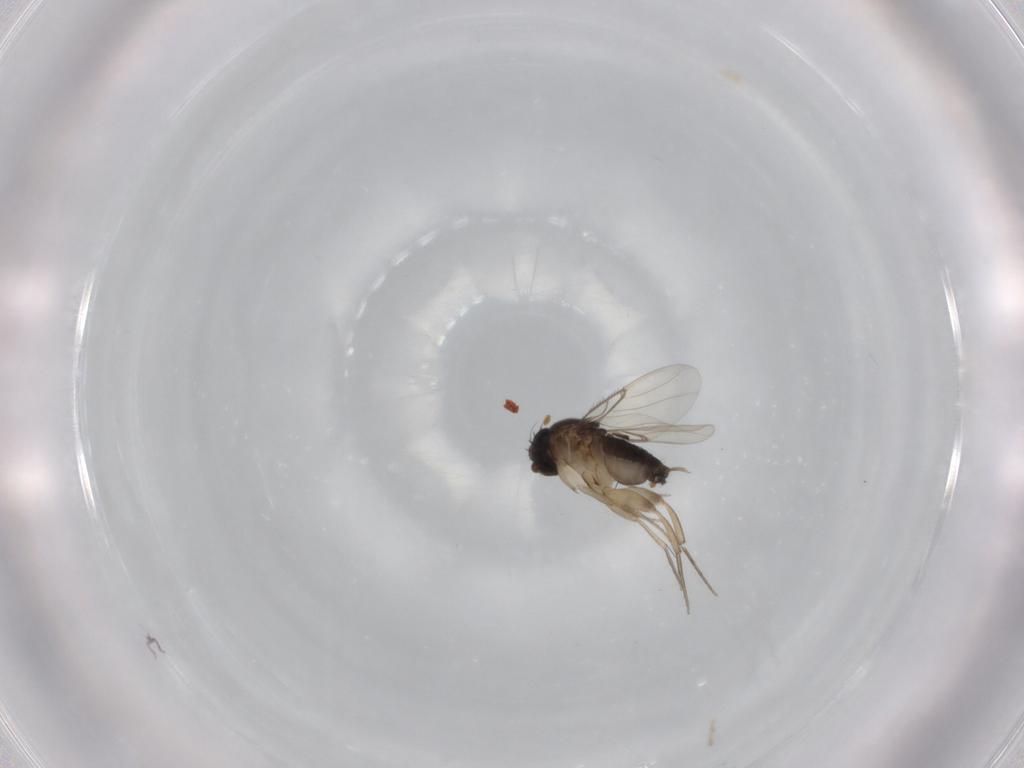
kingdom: Animalia
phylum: Arthropoda
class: Insecta
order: Diptera
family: Phoridae
